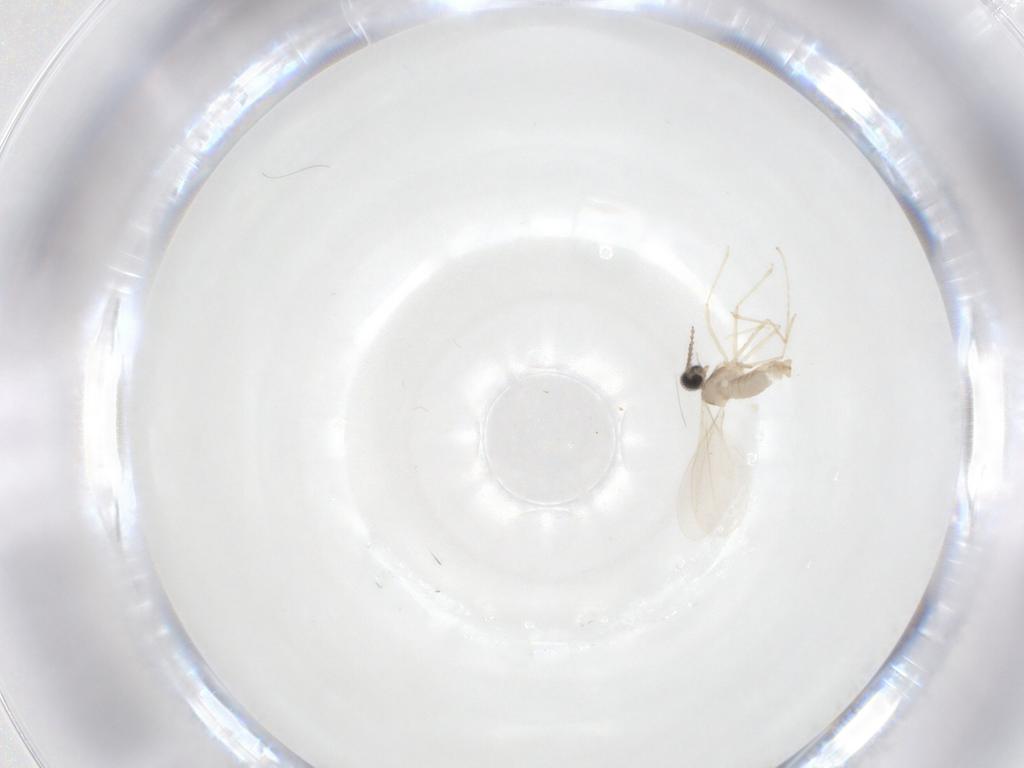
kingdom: Animalia
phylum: Arthropoda
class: Insecta
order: Diptera
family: Cecidomyiidae
